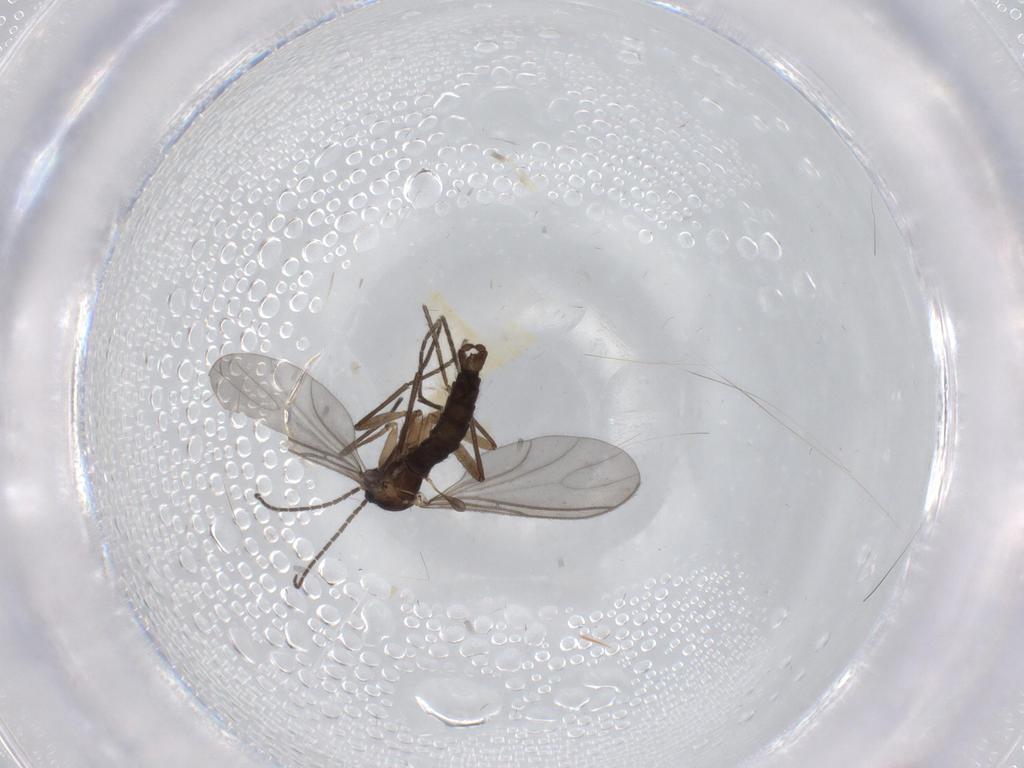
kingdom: Animalia
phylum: Arthropoda
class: Insecta
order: Diptera
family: Sciaridae
